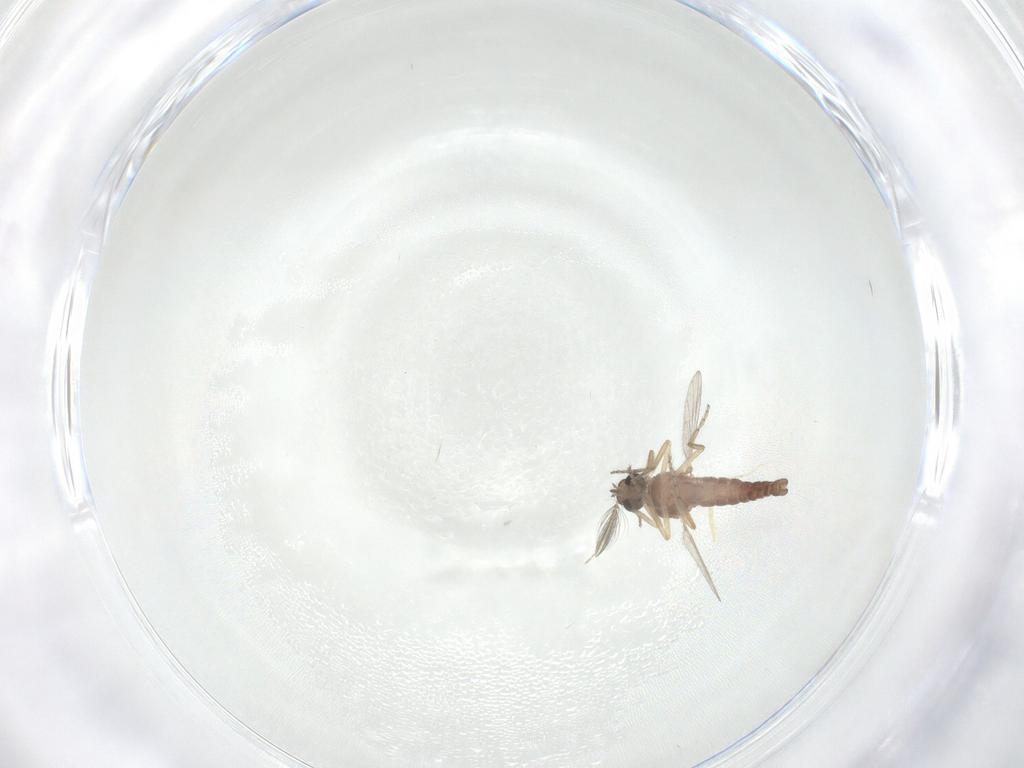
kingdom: Animalia
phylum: Arthropoda
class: Insecta
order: Diptera
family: Ceratopogonidae
